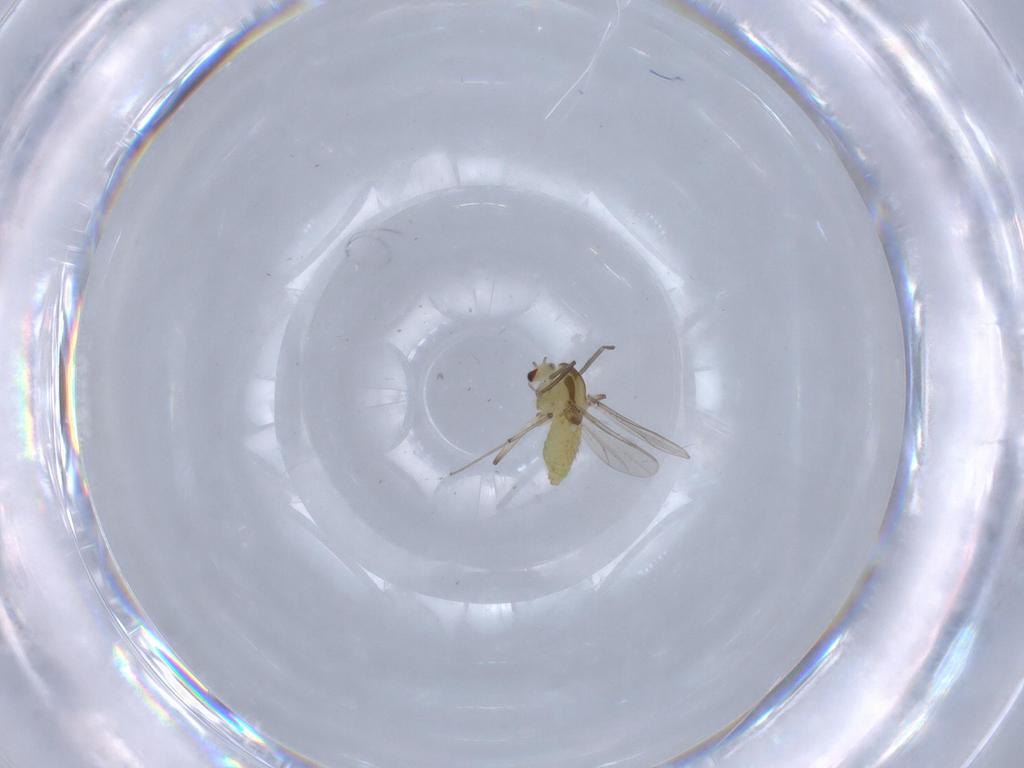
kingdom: Animalia
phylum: Arthropoda
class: Insecta
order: Diptera
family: Chironomidae
